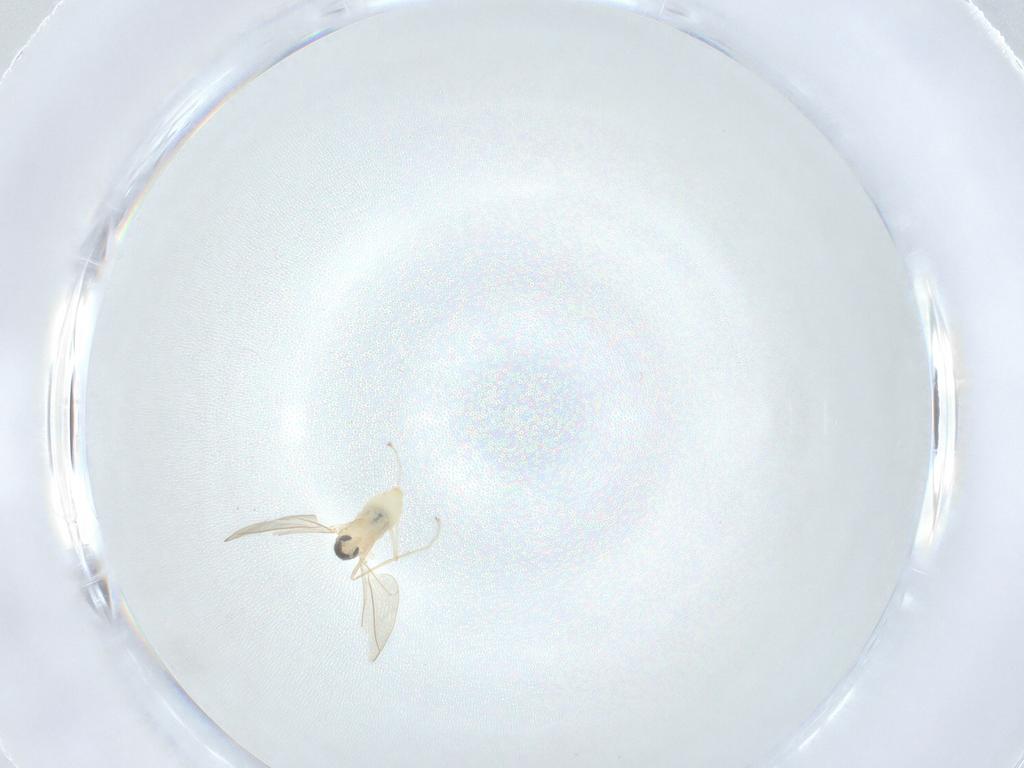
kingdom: Animalia
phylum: Arthropoda
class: Insecta
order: Diptera
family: Cecidomyiidae
